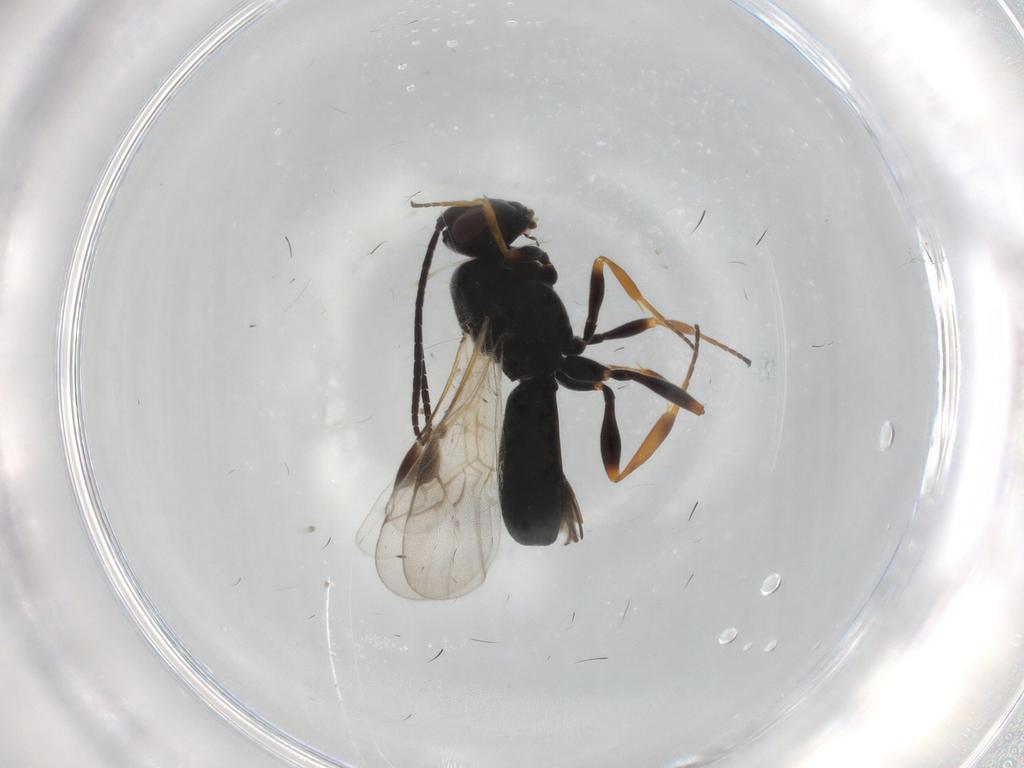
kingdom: Animalia
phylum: Arthropoda
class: Insecta
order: Hymenoptera
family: Braconidae
